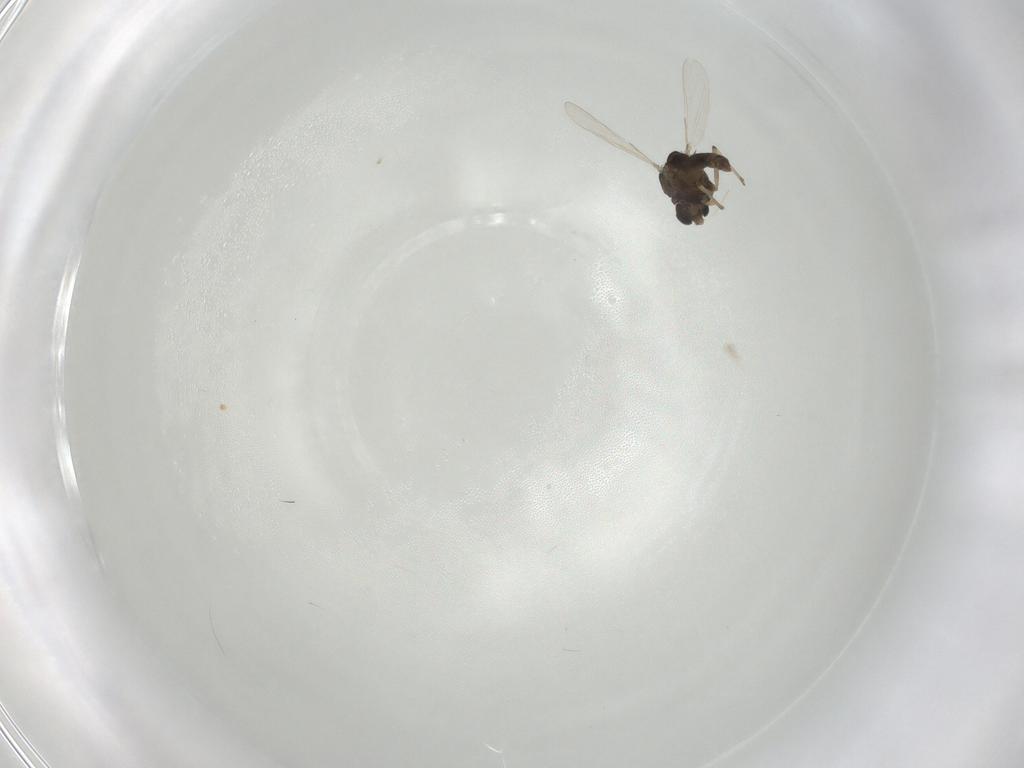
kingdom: Animalia
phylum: Arthropoda
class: Insecta
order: Diptera
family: Chironomidae
